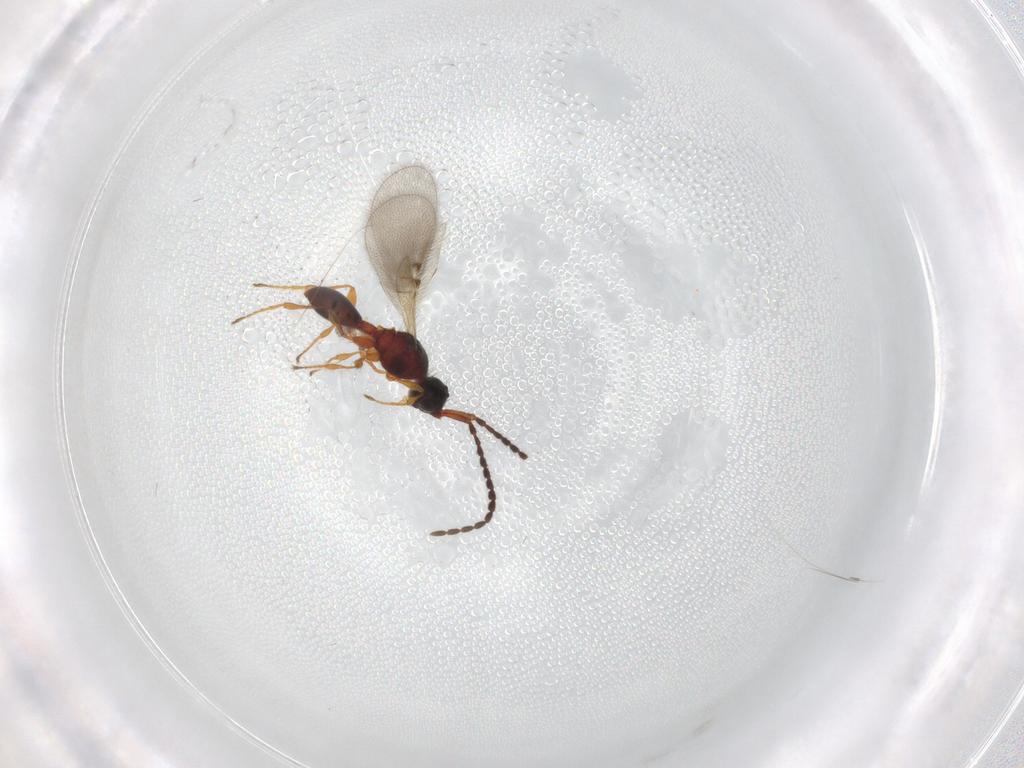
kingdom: Animalia
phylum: Arthropoda
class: Insecta
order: Hymenoptera
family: Diapriidae
